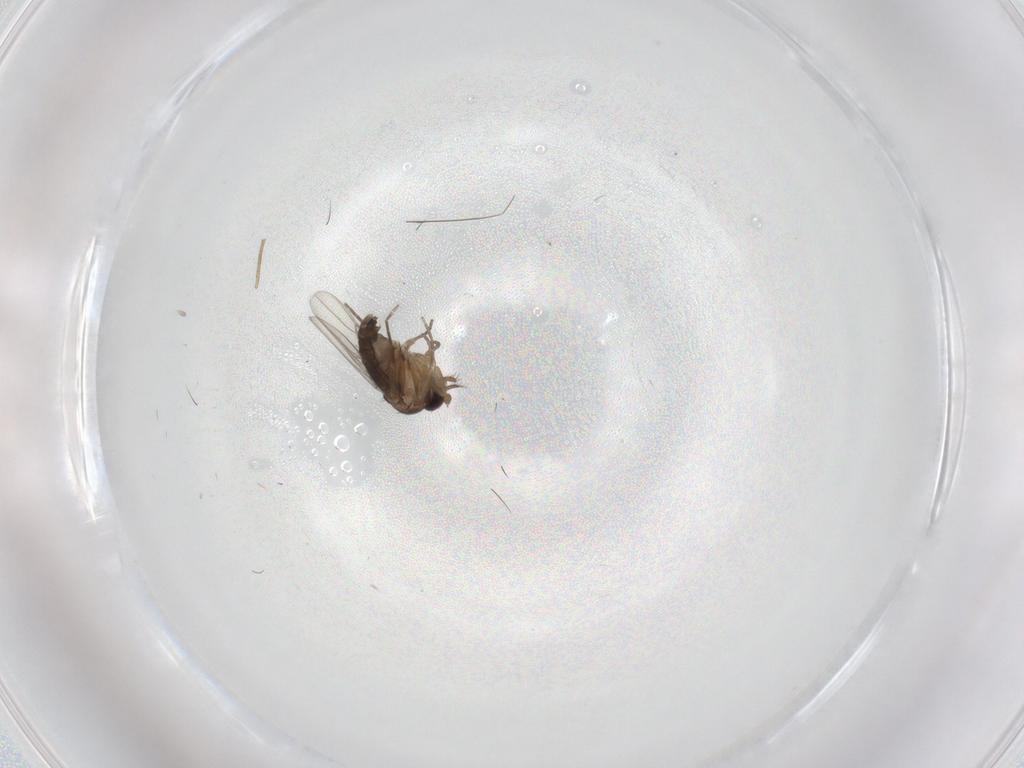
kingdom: Animalia
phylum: Arthropoda
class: Insecta
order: Diptera
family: Phoridae
